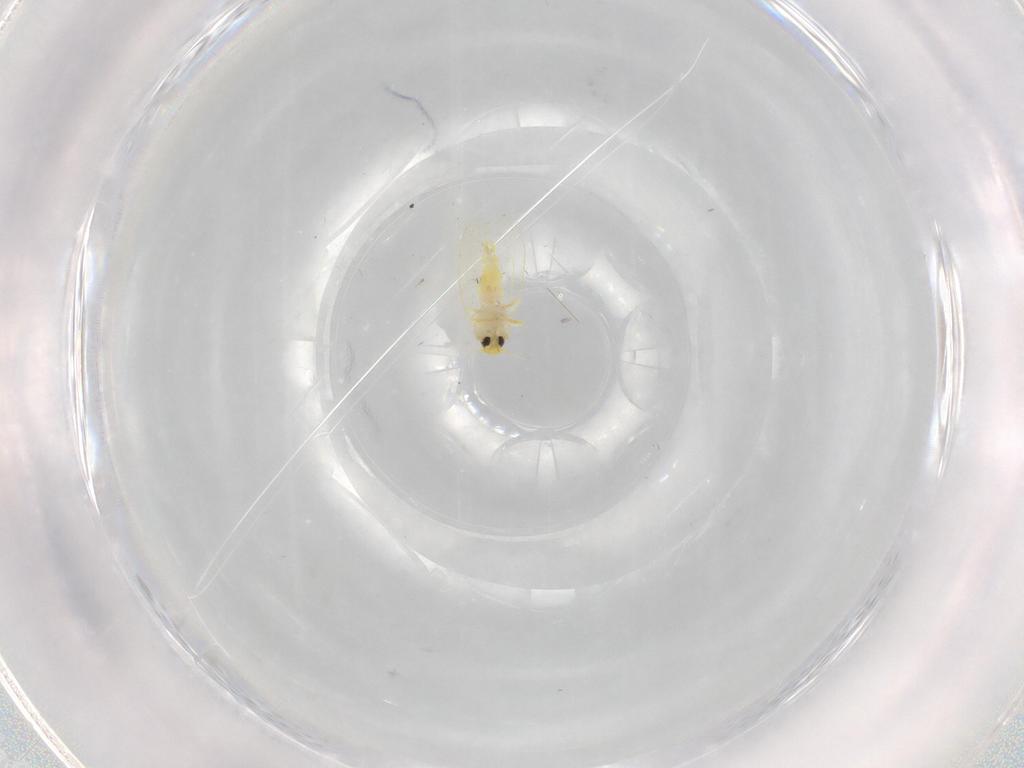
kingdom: Animalia
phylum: Arthropoda
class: Insecta
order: Hemiptera
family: Aleyrodidae
